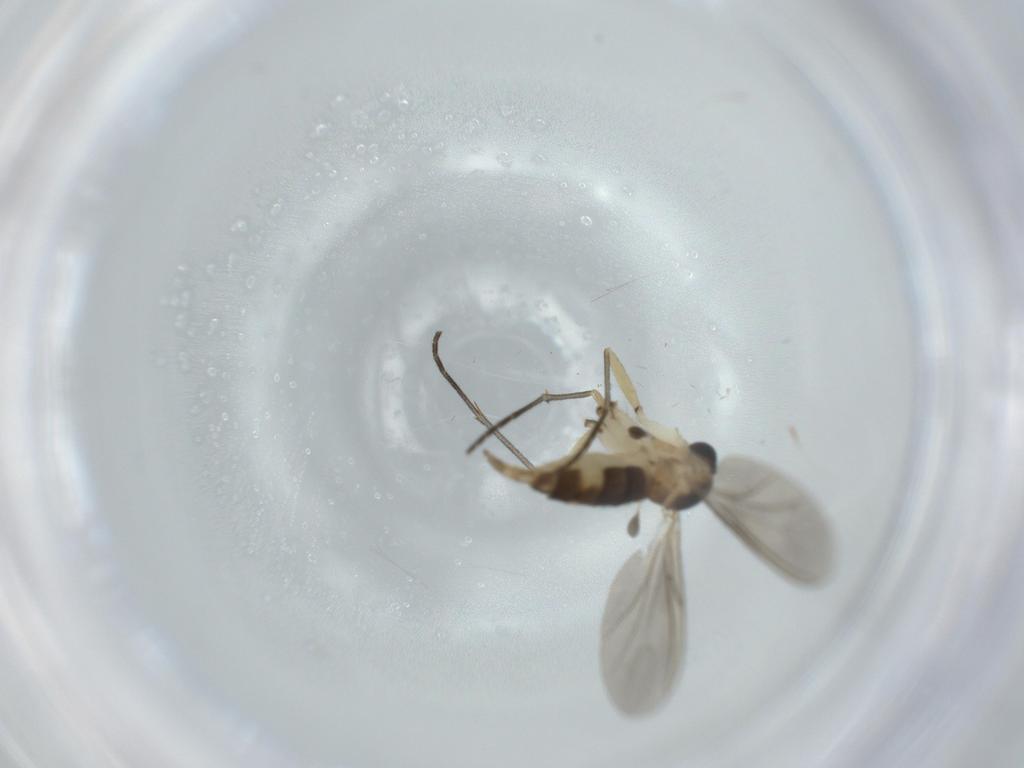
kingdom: Animalia
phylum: Arthropoda
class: Insecta
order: Diptera
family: Sciaridae
